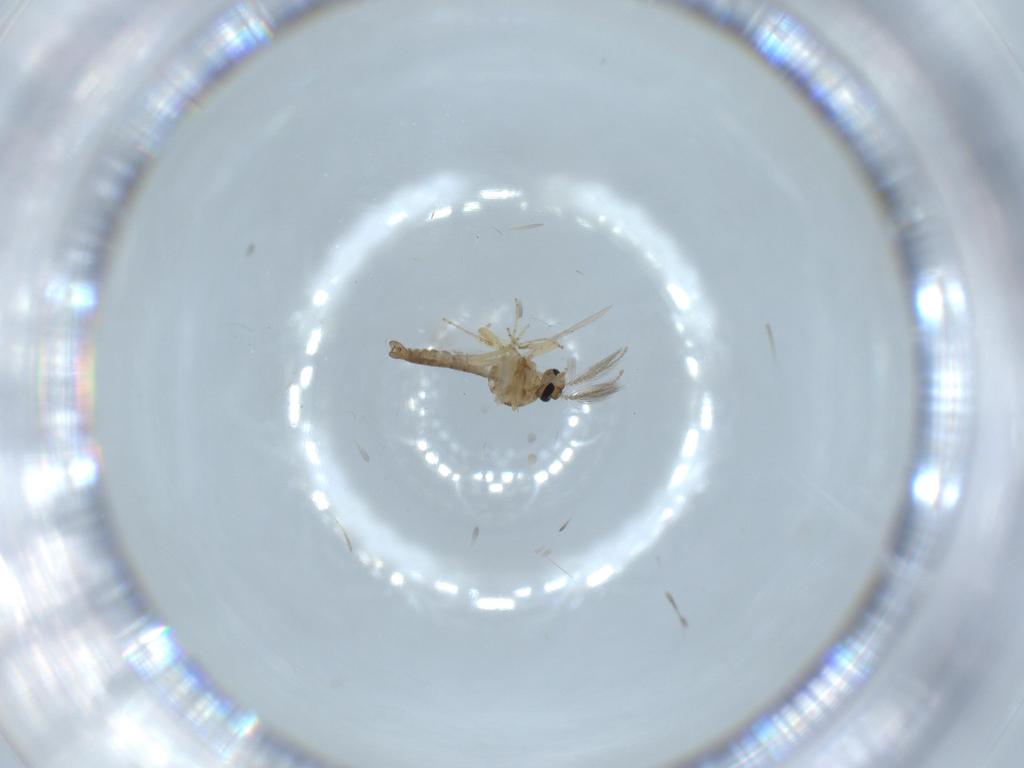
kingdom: Animalia
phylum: Arthropoda
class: Insecta
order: Diptera
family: Ceratopogonidae
